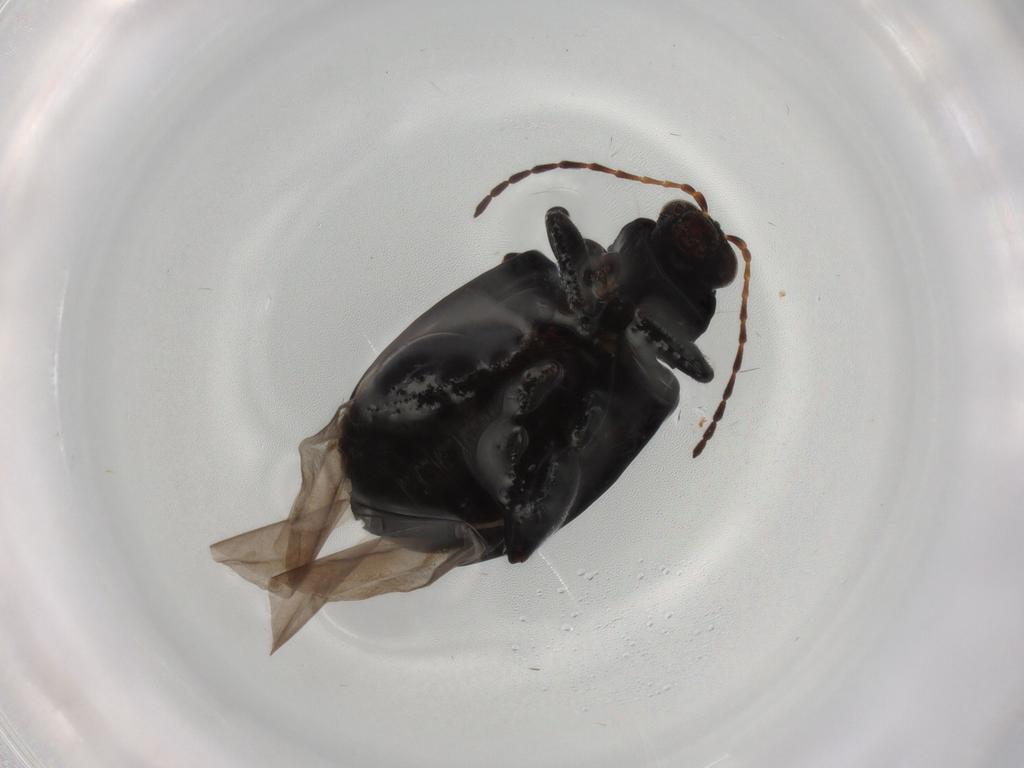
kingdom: Animalia
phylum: Arthropoda
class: Insecta
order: Coleoptera
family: Chrysomelidae
